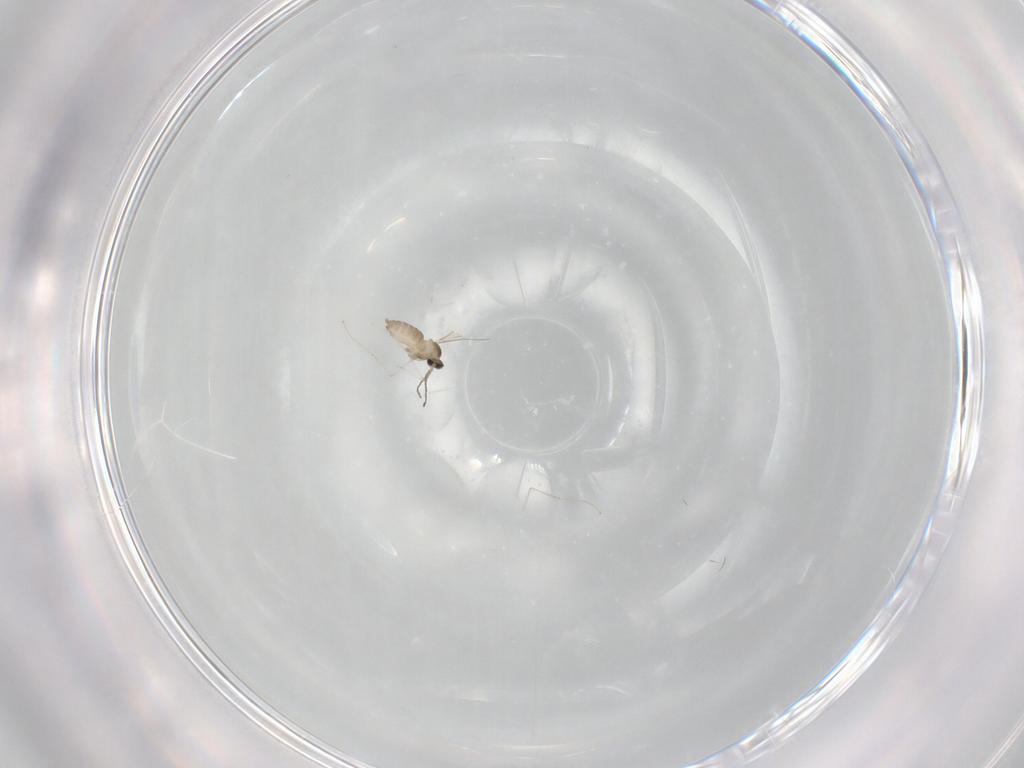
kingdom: Animalia
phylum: Arthropoda
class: Insecta
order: Diptera
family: Cecidomyiidae
